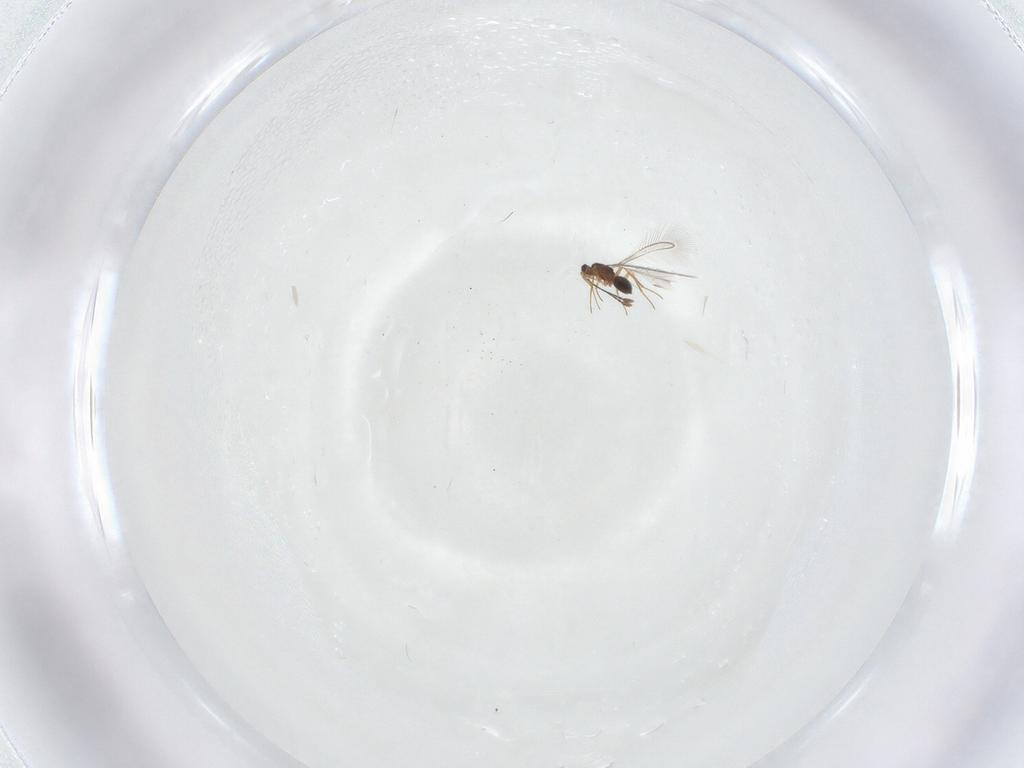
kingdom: Animalia
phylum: Arthropoda
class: Insecta
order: Hymenoptera
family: Mymaridae
